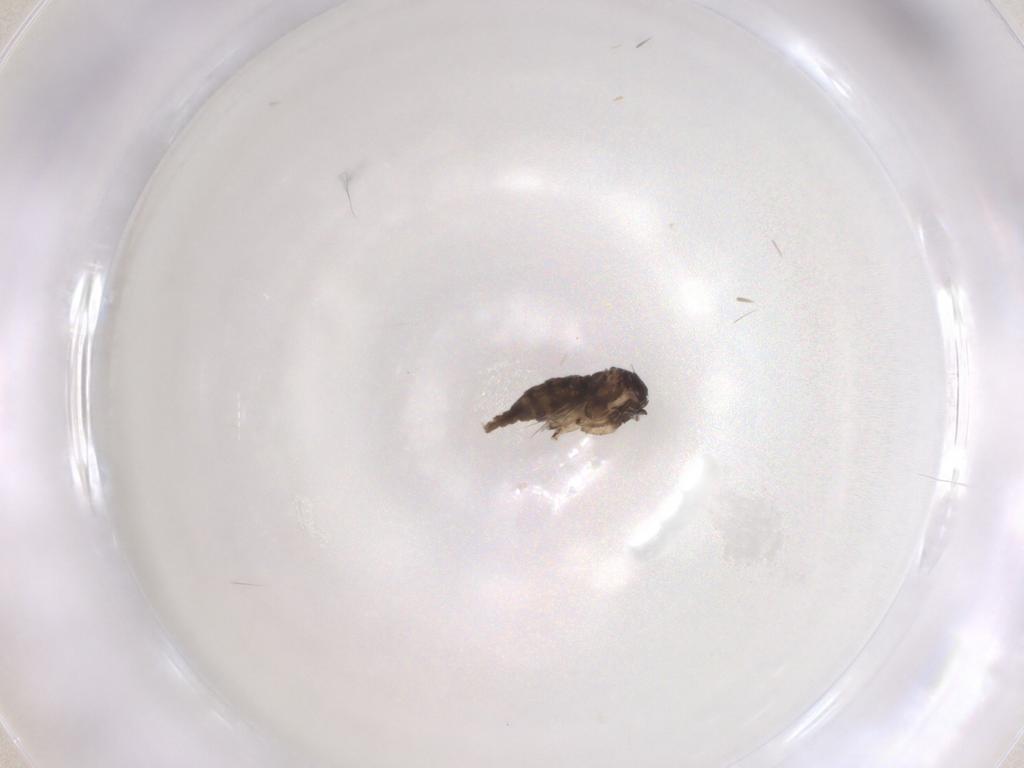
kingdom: Animalia
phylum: Arthropoda
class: Insecta
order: Diptera
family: Sciaridae
